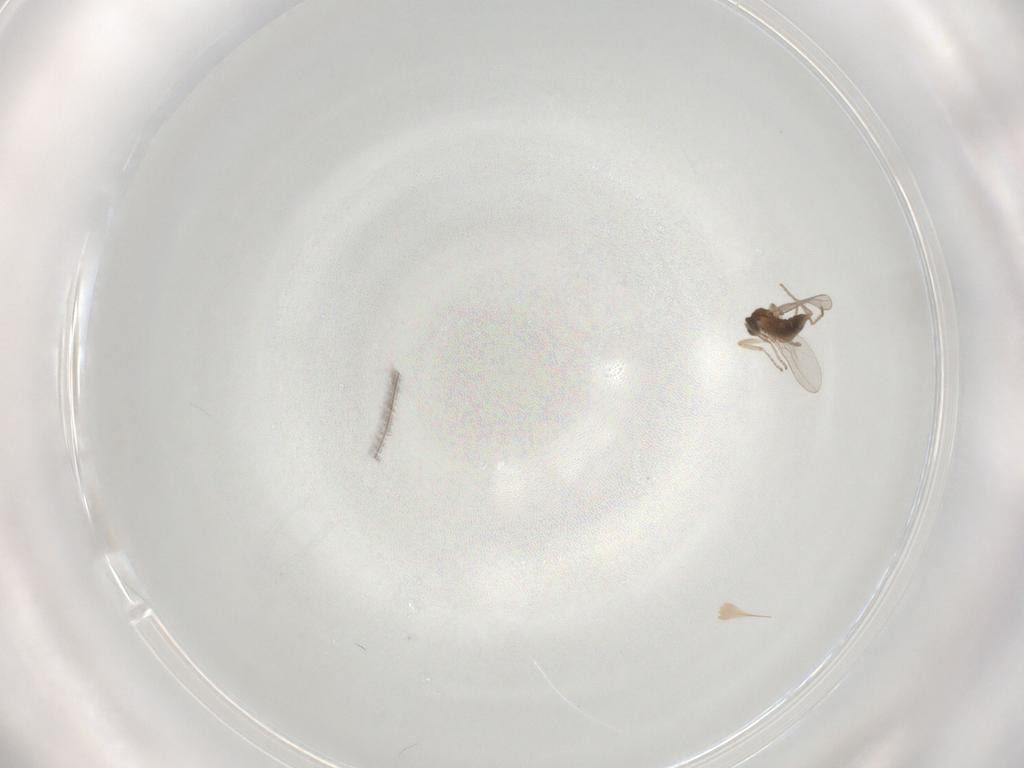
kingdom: Animalia
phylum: Arthropoda
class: Insecta
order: Diptera
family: Cecidomyiidae
